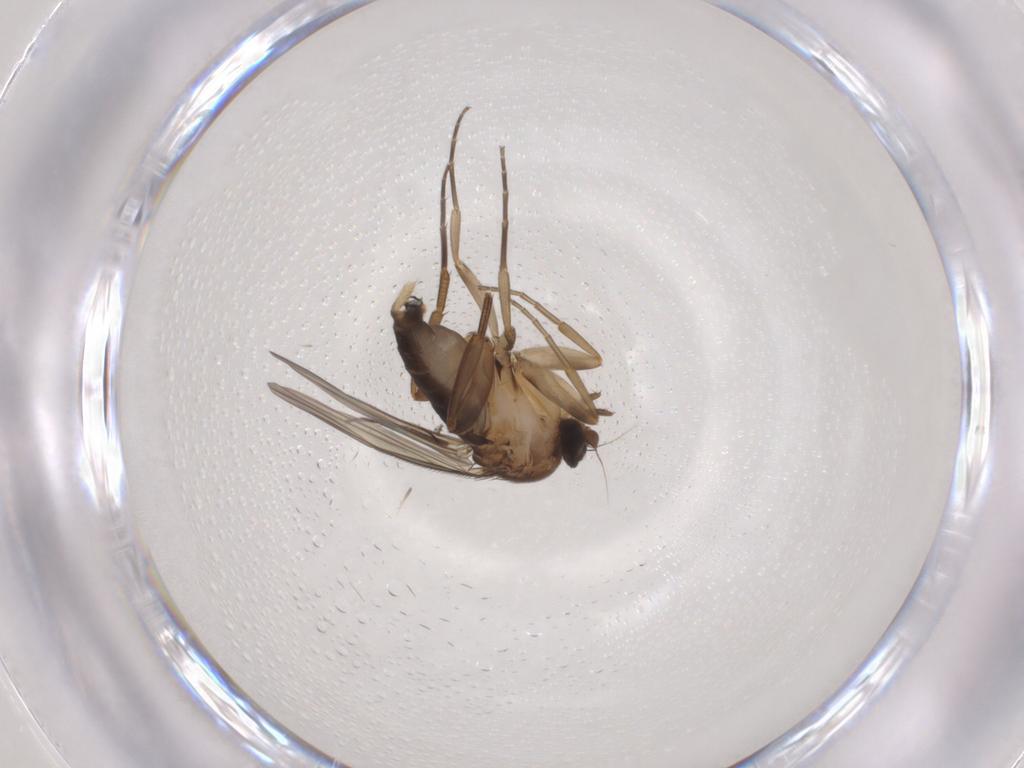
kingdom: Animalia
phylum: Arthropoda
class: Insecta
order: Diptera
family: Phoridae
